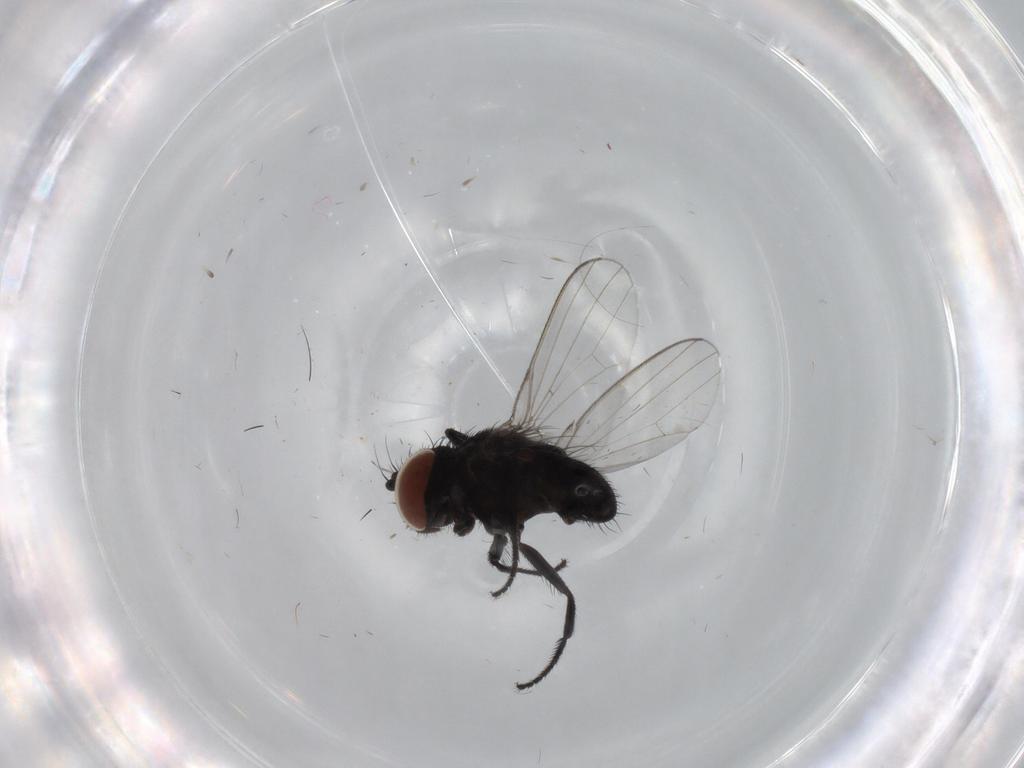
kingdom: Animalia
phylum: Arthropoda
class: Insecta
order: Diptera
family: Milichiidae
